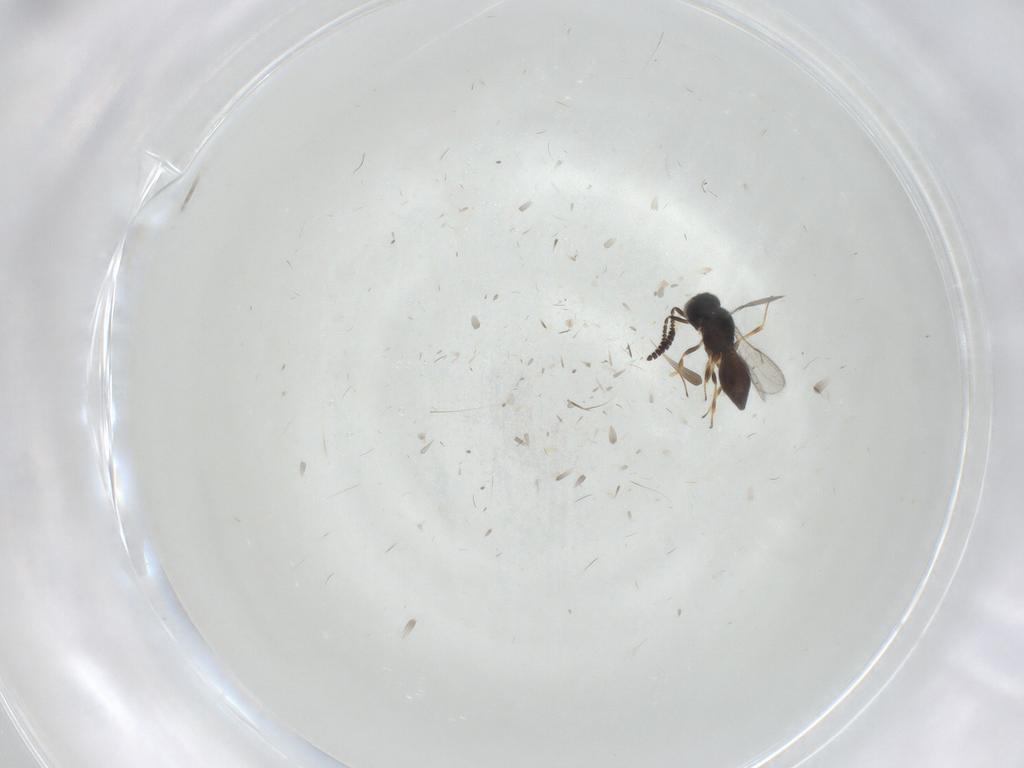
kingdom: Animalia
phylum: Arthropoda
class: Insecta
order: Hymenoptera
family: Scelionidae
